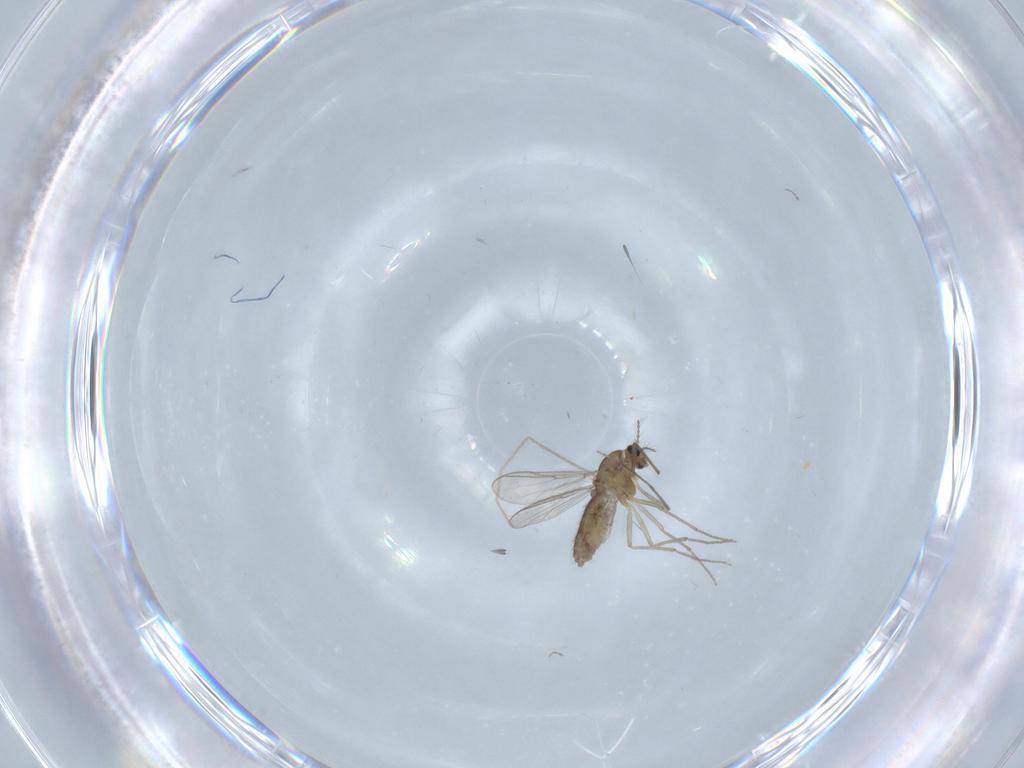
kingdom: Animalia
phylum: Arthropoda
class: Insecta
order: Diptera
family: Chironomidae
